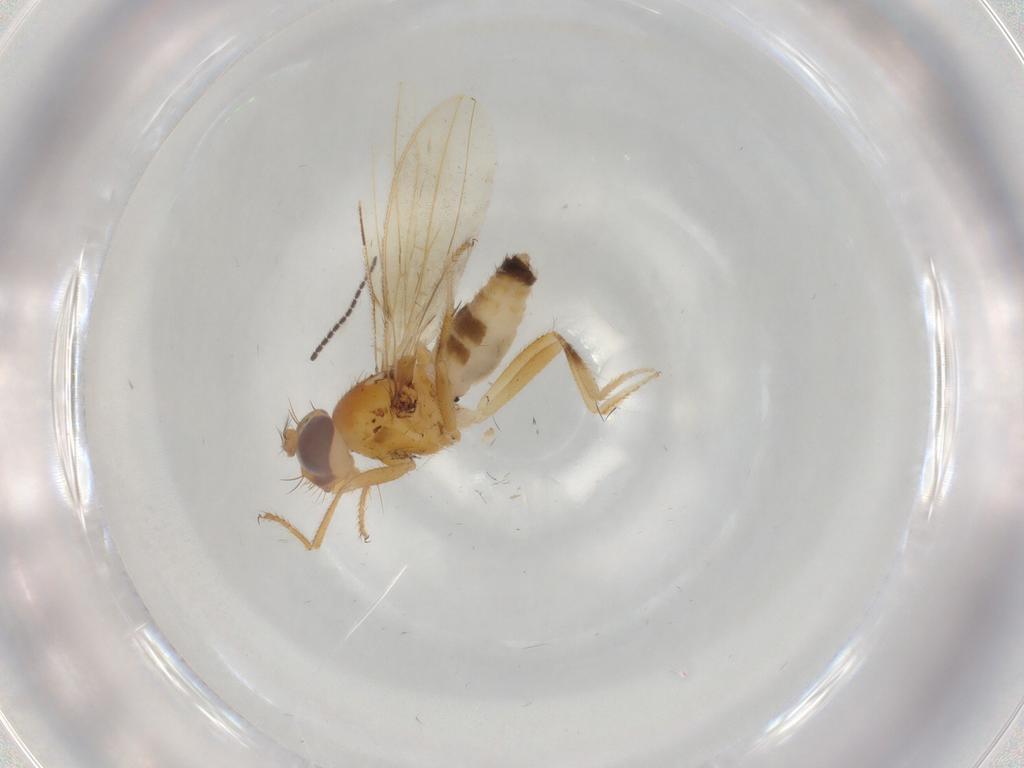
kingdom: Animalia
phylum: Arthropoda
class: Insecta
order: Diptera
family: Periscelididae
